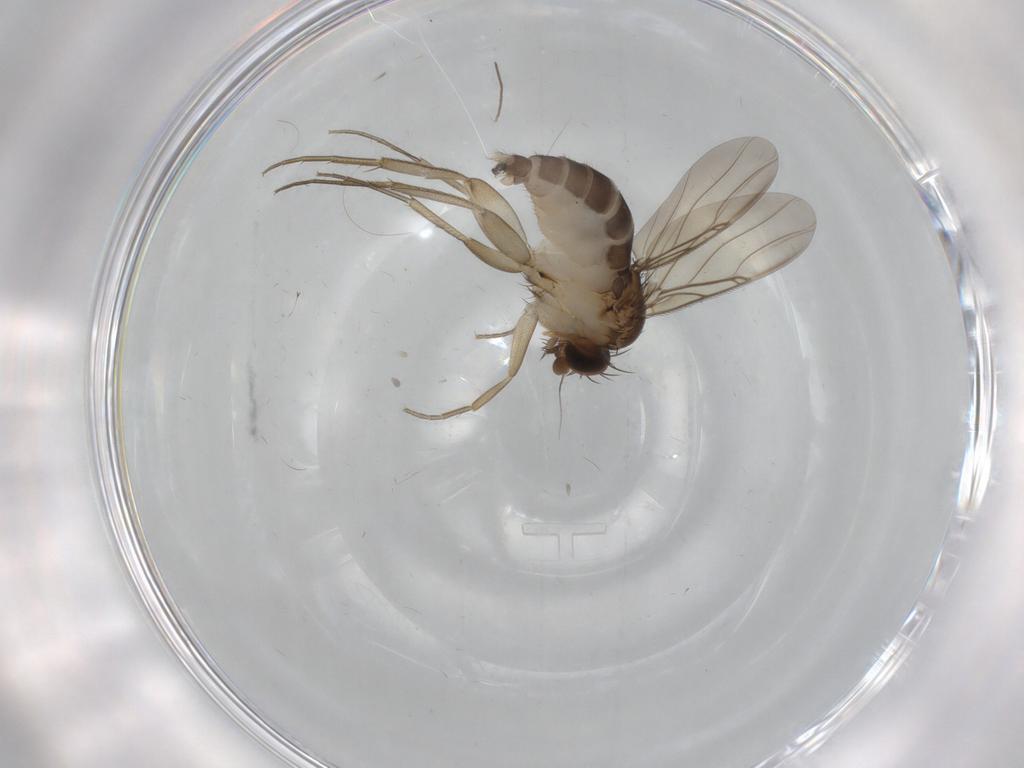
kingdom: Animalia
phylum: Arthropoda
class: Insecta
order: Diptera
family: Phoridae
